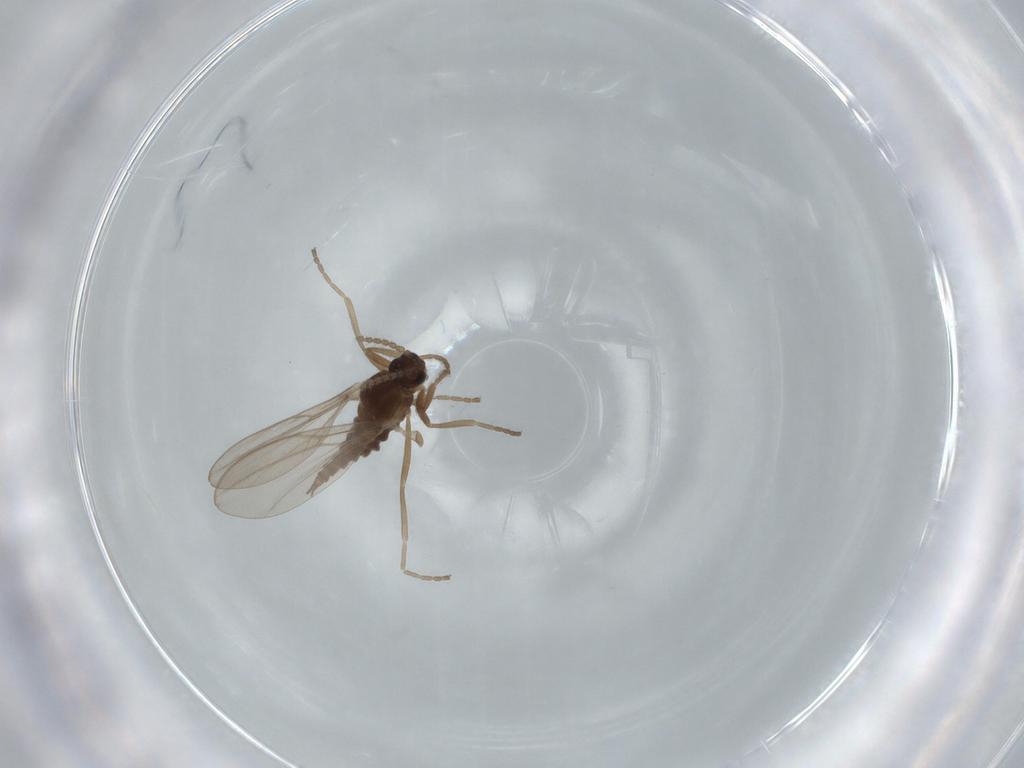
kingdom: Animalia
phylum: Arthropoda
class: Insecta
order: Diptera
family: Cecidomyiidae
